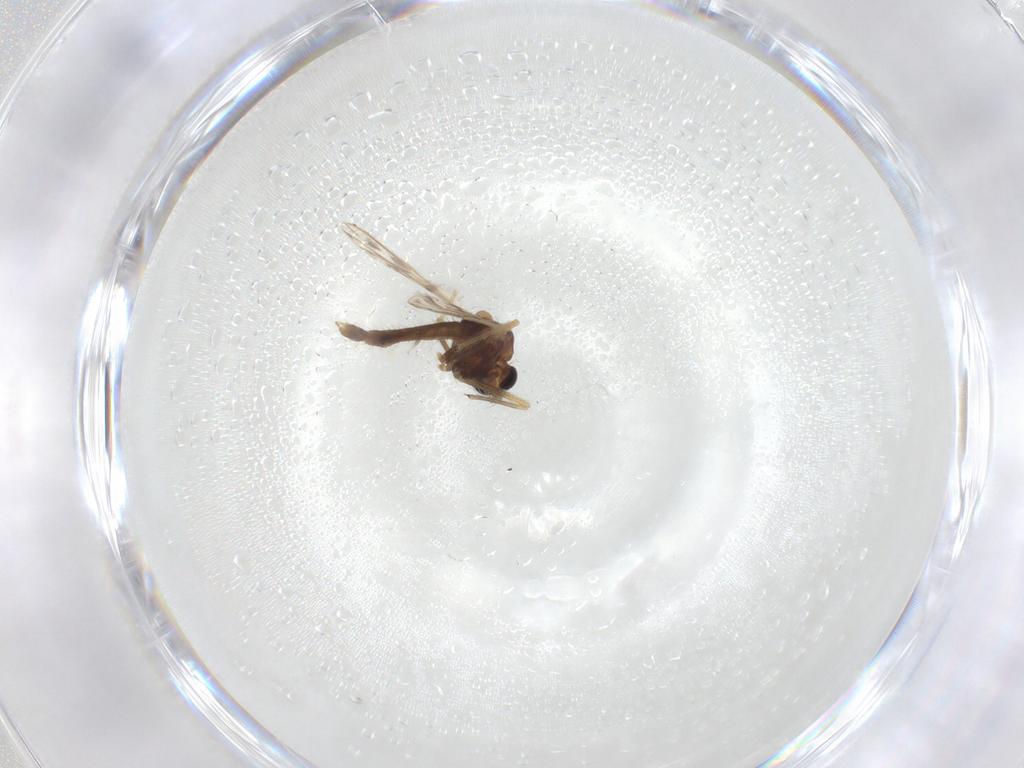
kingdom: Animalia
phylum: Arthropoda
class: Insecta
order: Diptera
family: Chironomidae
